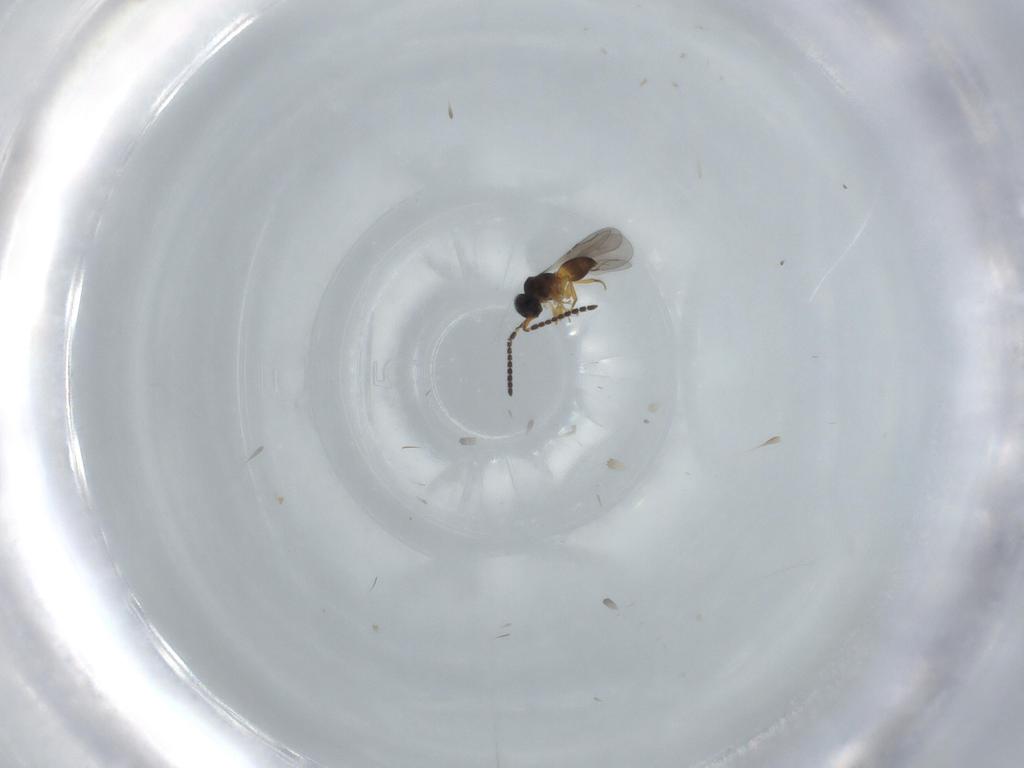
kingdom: Animalia
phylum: Arthropoda
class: Insecta
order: Hymenoptera
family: Ceraphronidae
